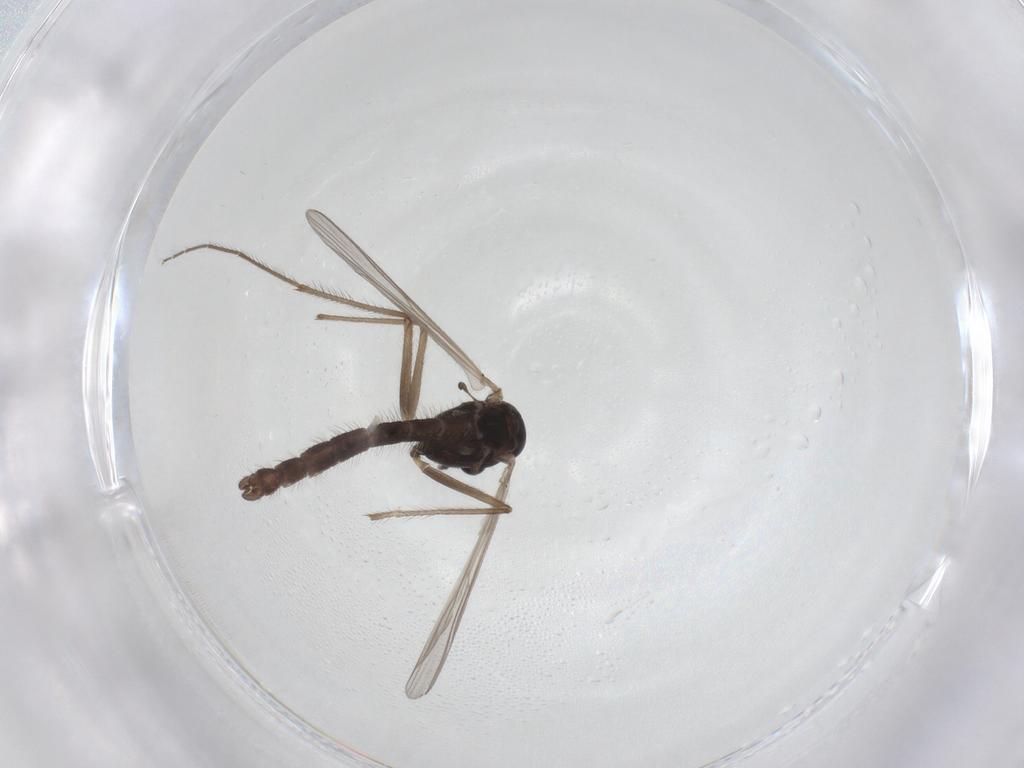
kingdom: Animalia
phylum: Arthropoda
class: Insecta
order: Diptera
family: Chironomidae
